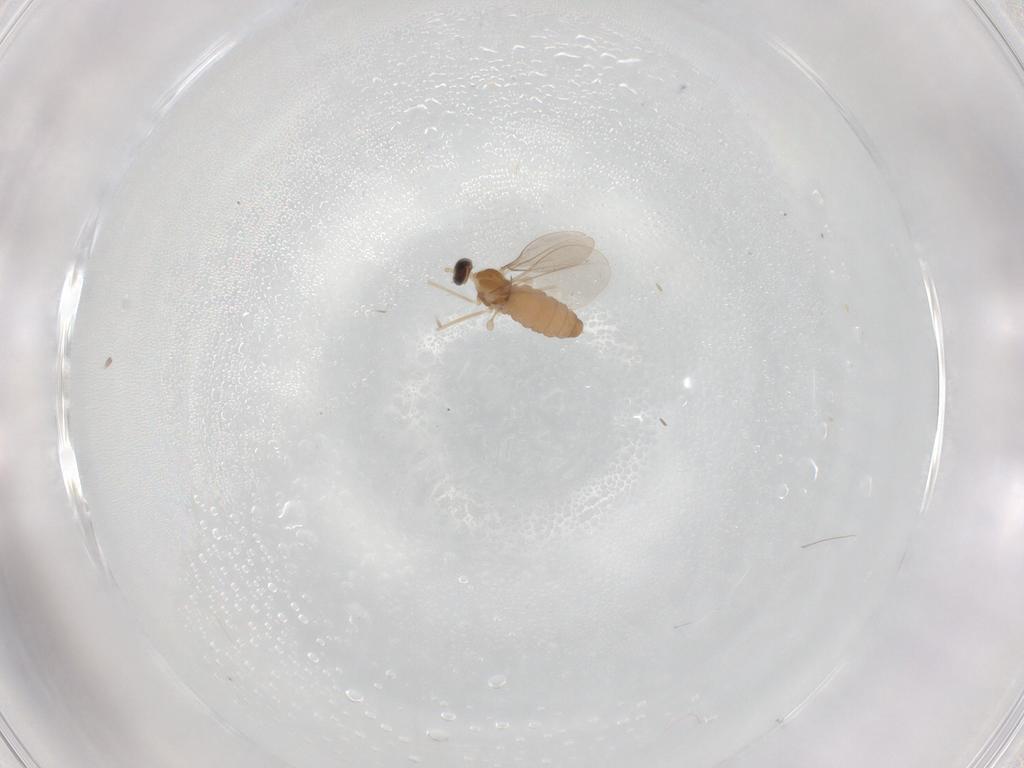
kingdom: Animalia
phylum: Arthropoda
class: Insecta
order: Diptera
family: Cecidomyiidae
